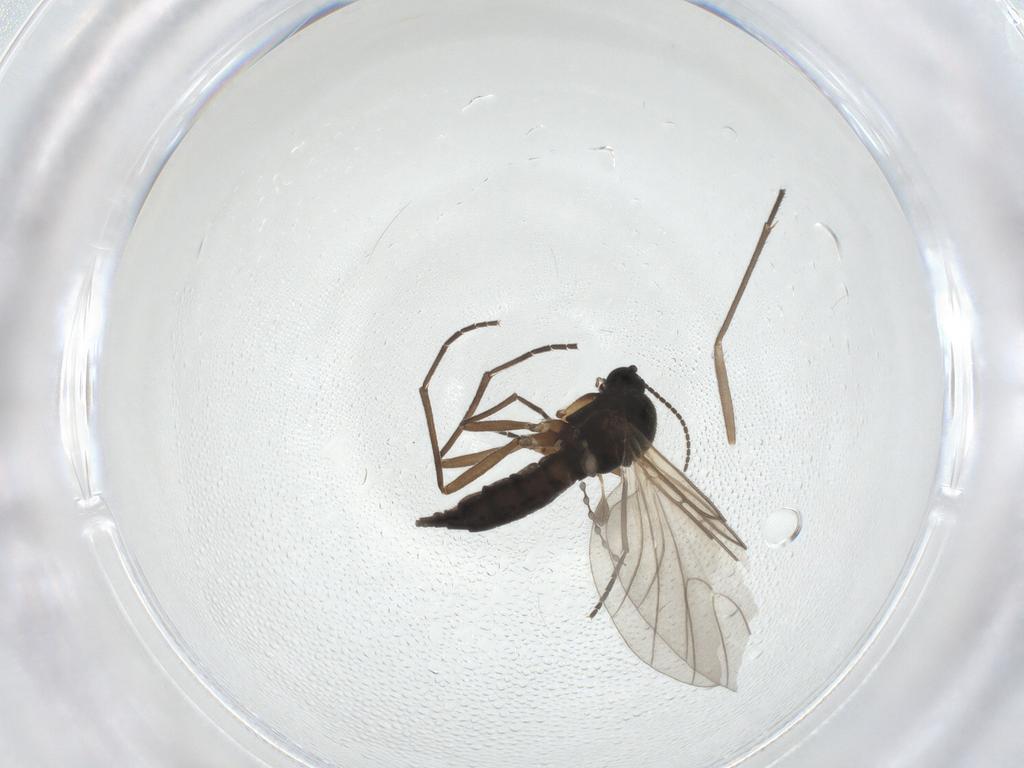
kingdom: Animalia
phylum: Arthropoda
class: Insecta
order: Diptera
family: Sciaridae
